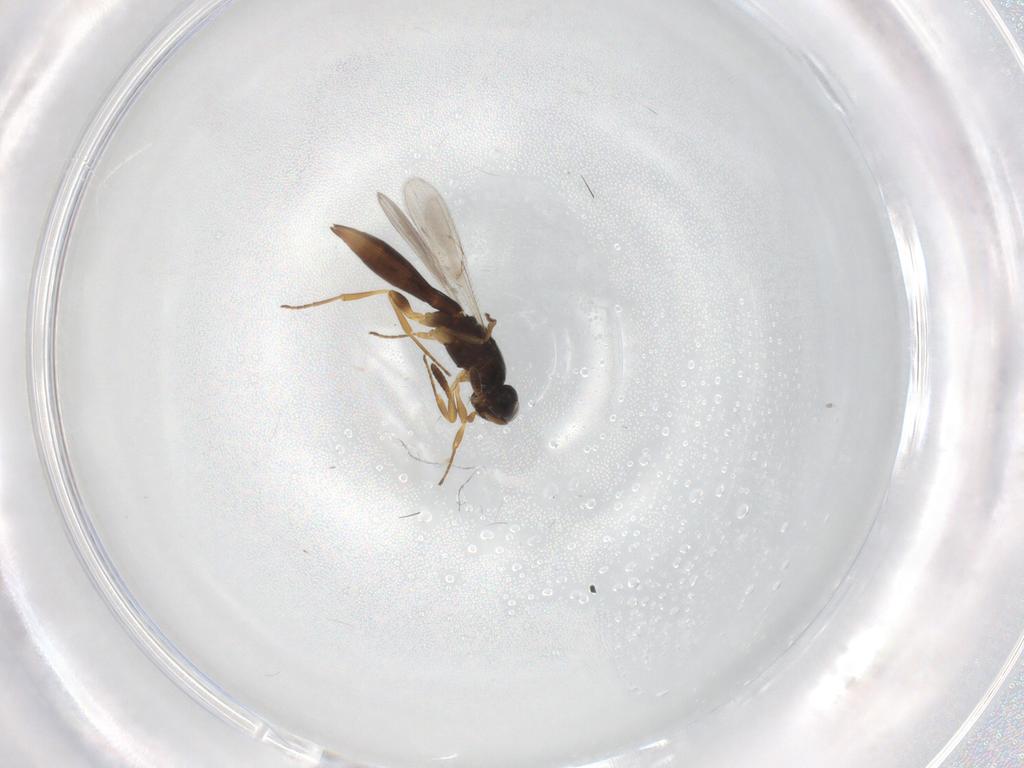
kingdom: Animalia
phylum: Arthropoda
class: Insecta
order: Hymenoptera
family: Scelionidae
